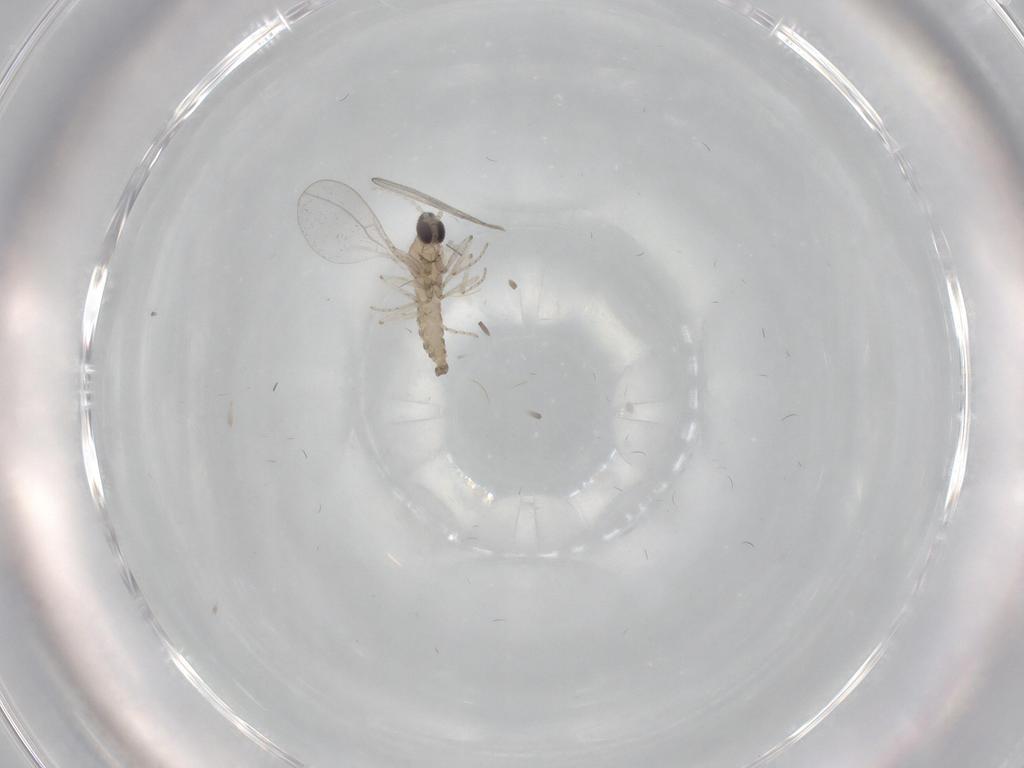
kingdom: Animalia
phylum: Arthropoda
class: Insecta
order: Diptera
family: Cecidomyiidae
